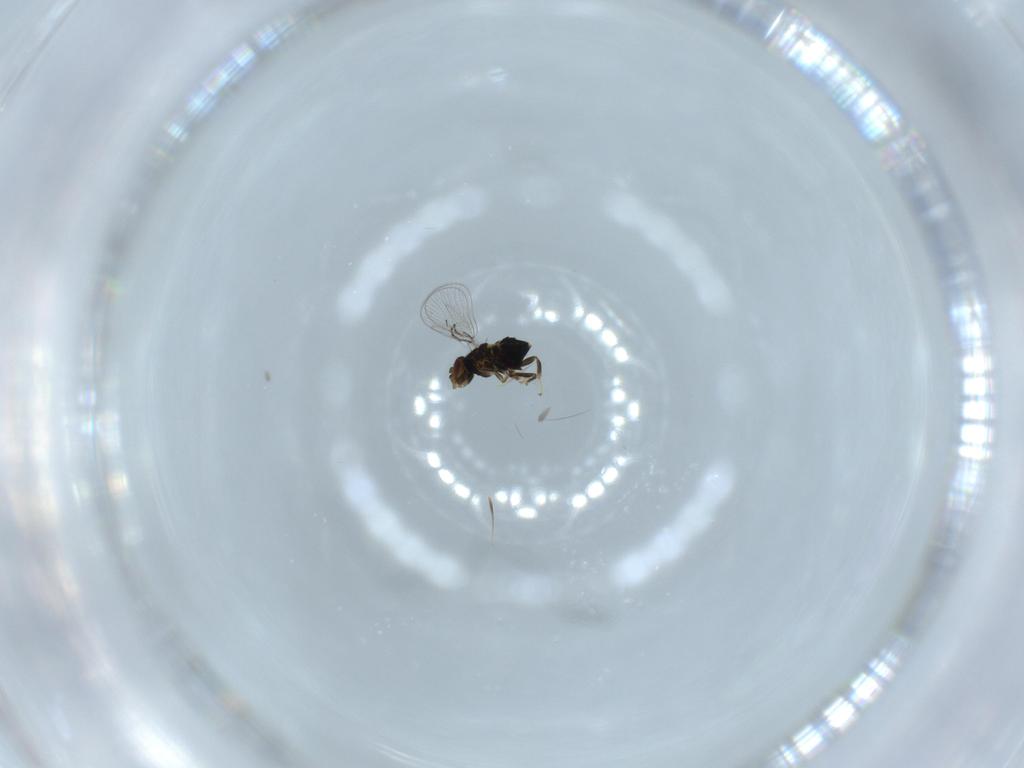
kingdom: Animalia
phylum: Arthropoda
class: Insecta
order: Hymenoptera
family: Trichogrammatidae
